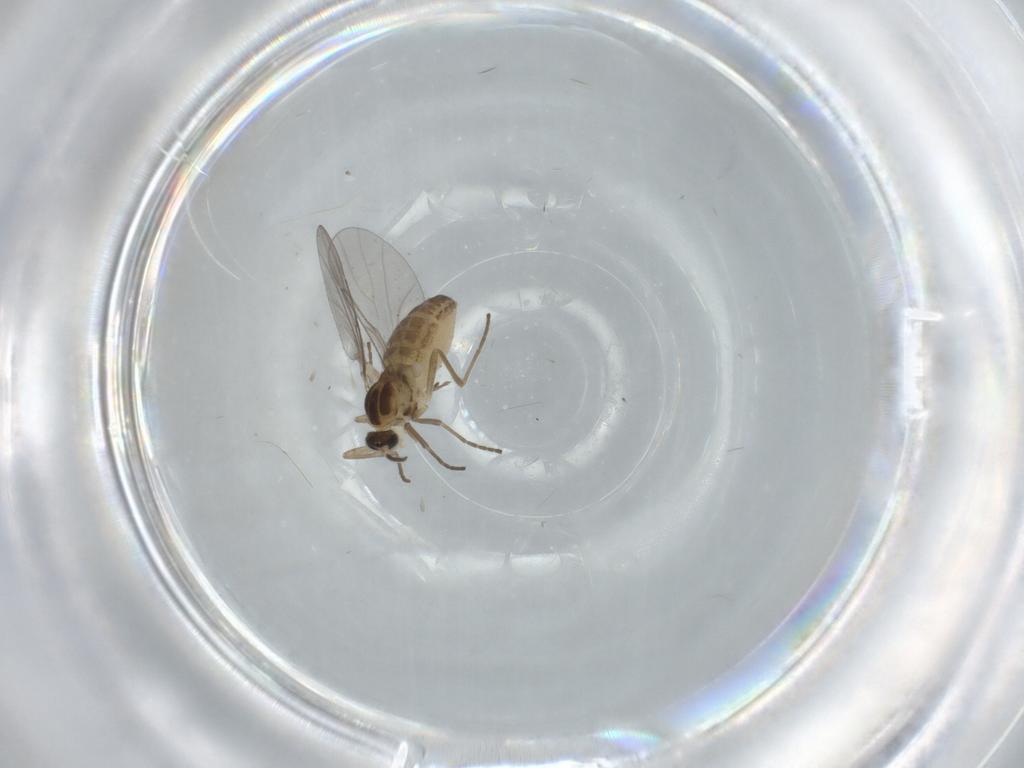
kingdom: Animalia
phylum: Arthropoda
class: Insecta
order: Diptera
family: Cecidomyiidae
